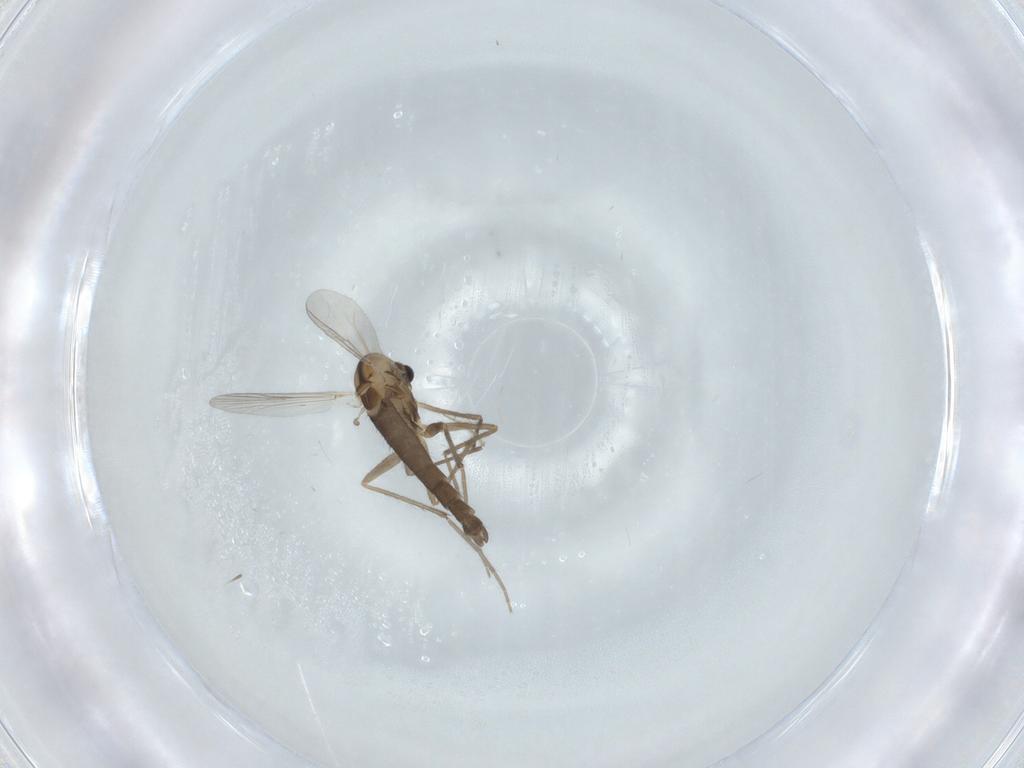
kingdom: Animalia
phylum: Arthropoda
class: Insecta
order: Diptera
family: Chironomidae
